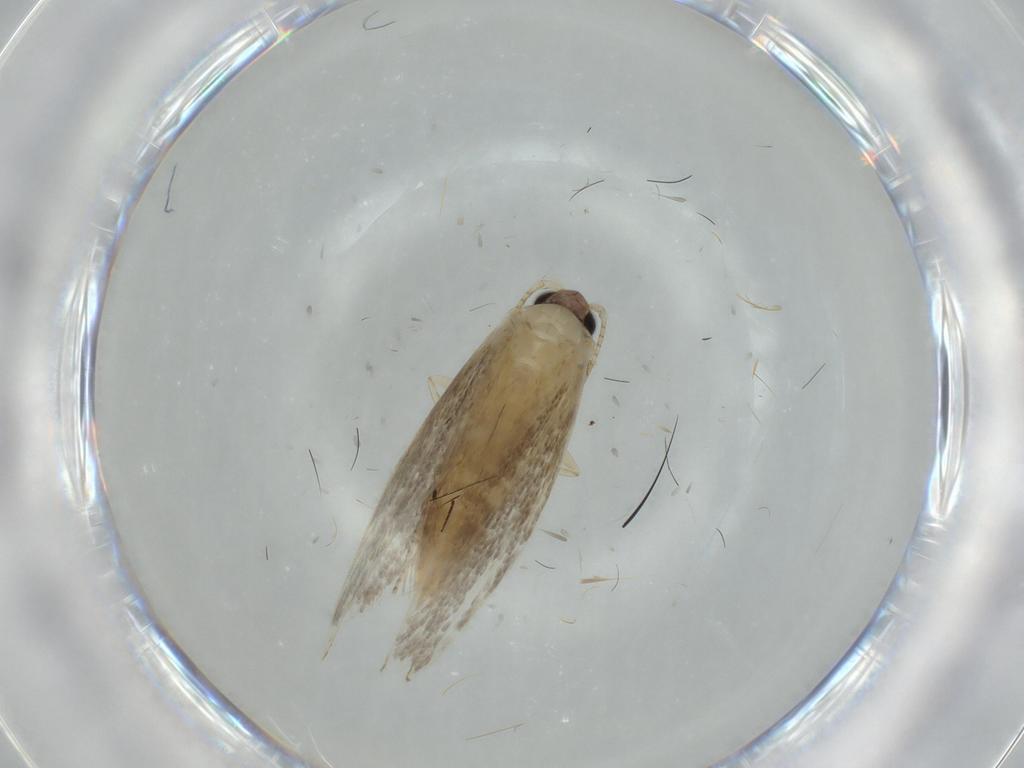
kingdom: Animalia
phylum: Arthropoda
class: Insecta
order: Lepidoptera
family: Tineidae
